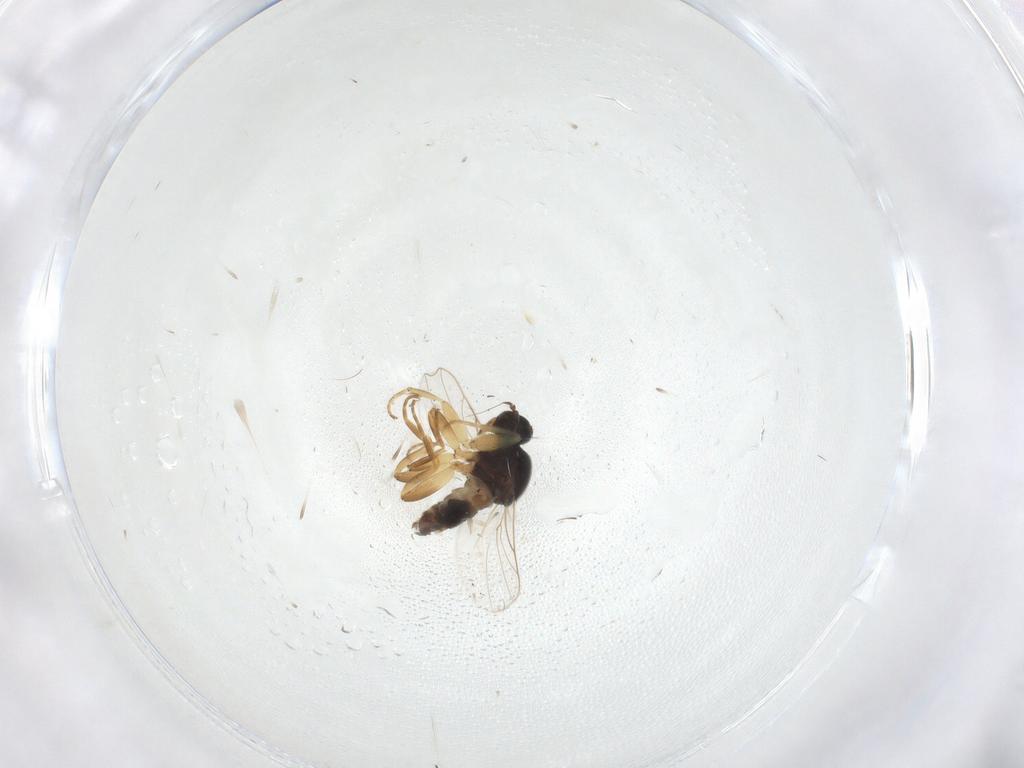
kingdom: Animalia
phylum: Arthropoda
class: Insecta
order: Diptera
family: Hybotidae
